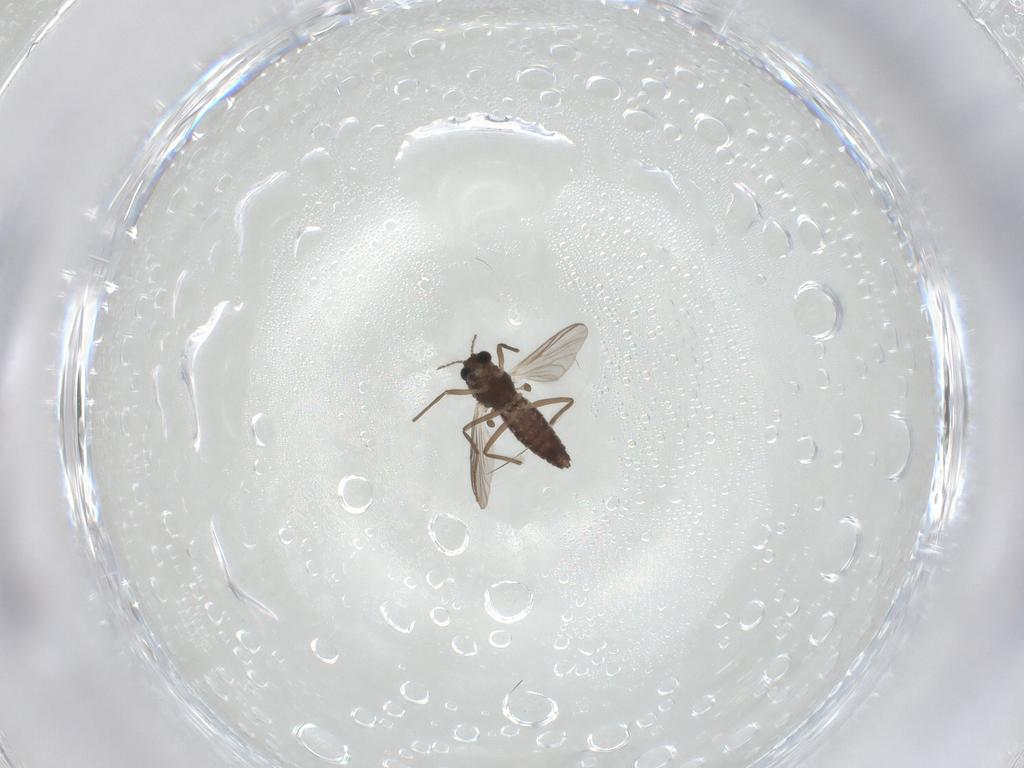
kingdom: Animalia
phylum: Arthropoda
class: Insecta
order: Diptera
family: Chironomidae
